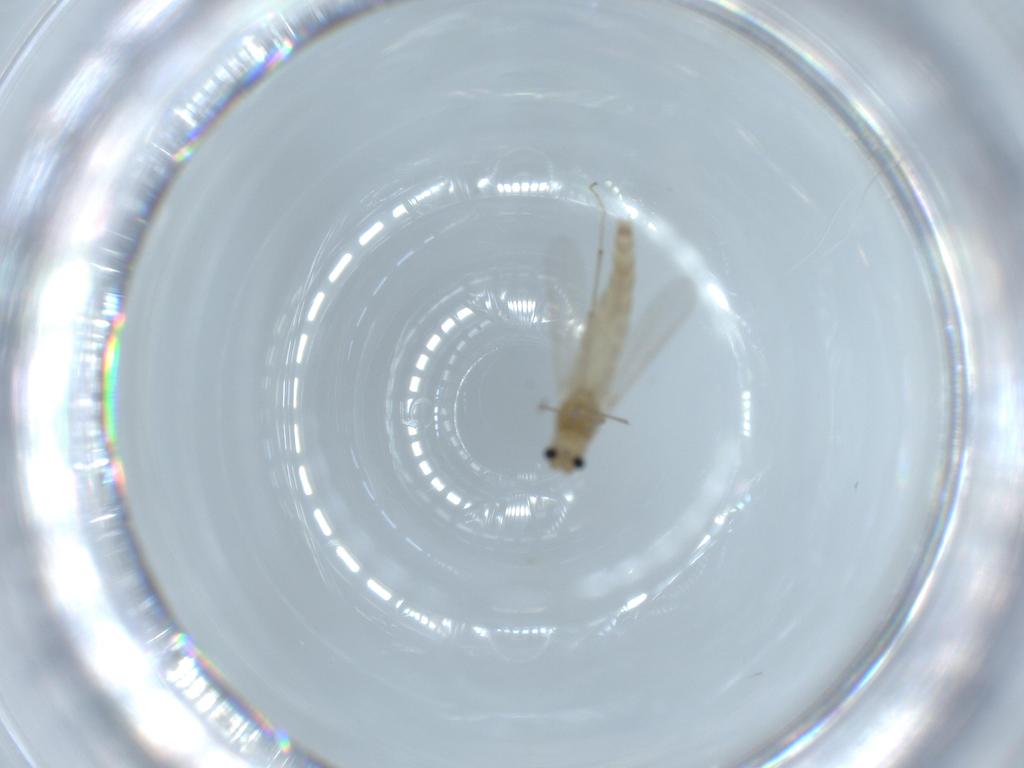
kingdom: Animalia
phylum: Arthropoda
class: Insecta
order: Diptera
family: Chironomidae
